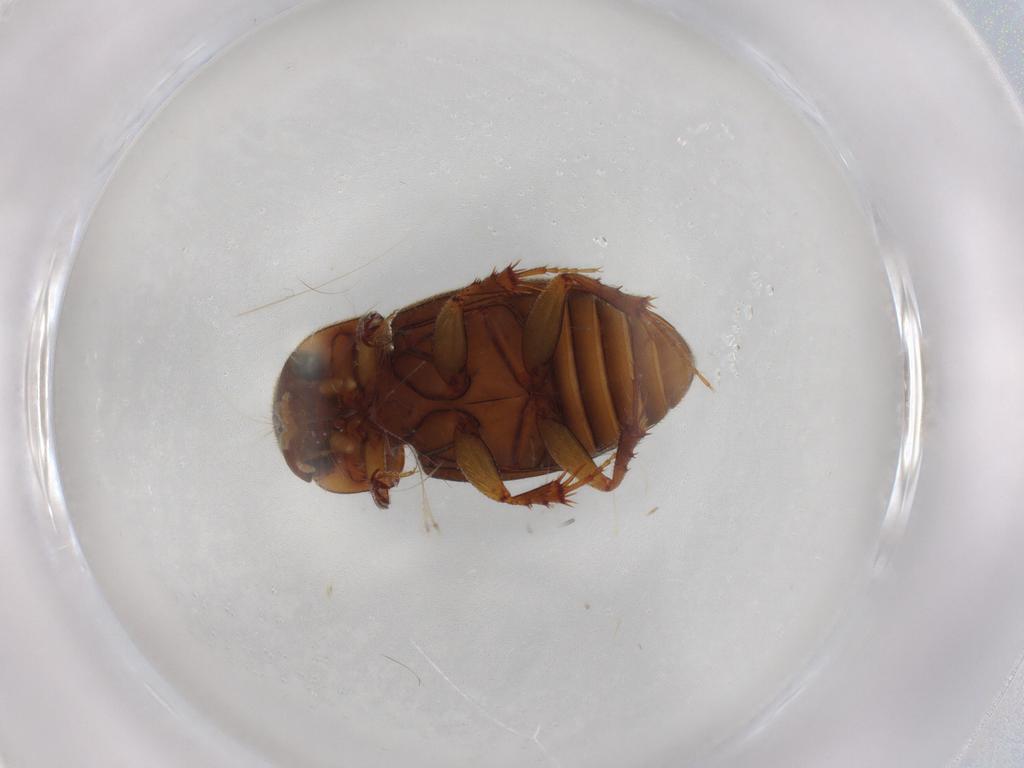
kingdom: Animalia
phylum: Arthropoda
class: Insecta
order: Coleoptera
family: Scarabaeidae
